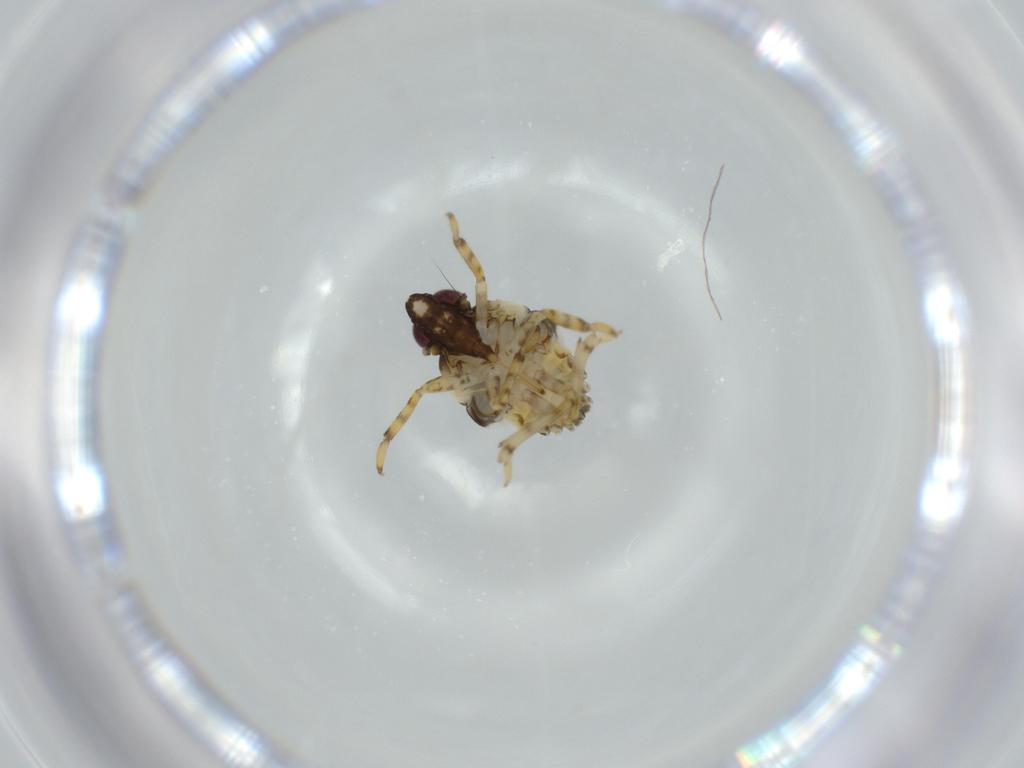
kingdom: Animalia
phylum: Arthropoda
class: Insecta
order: Hemiptera
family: Issidae
